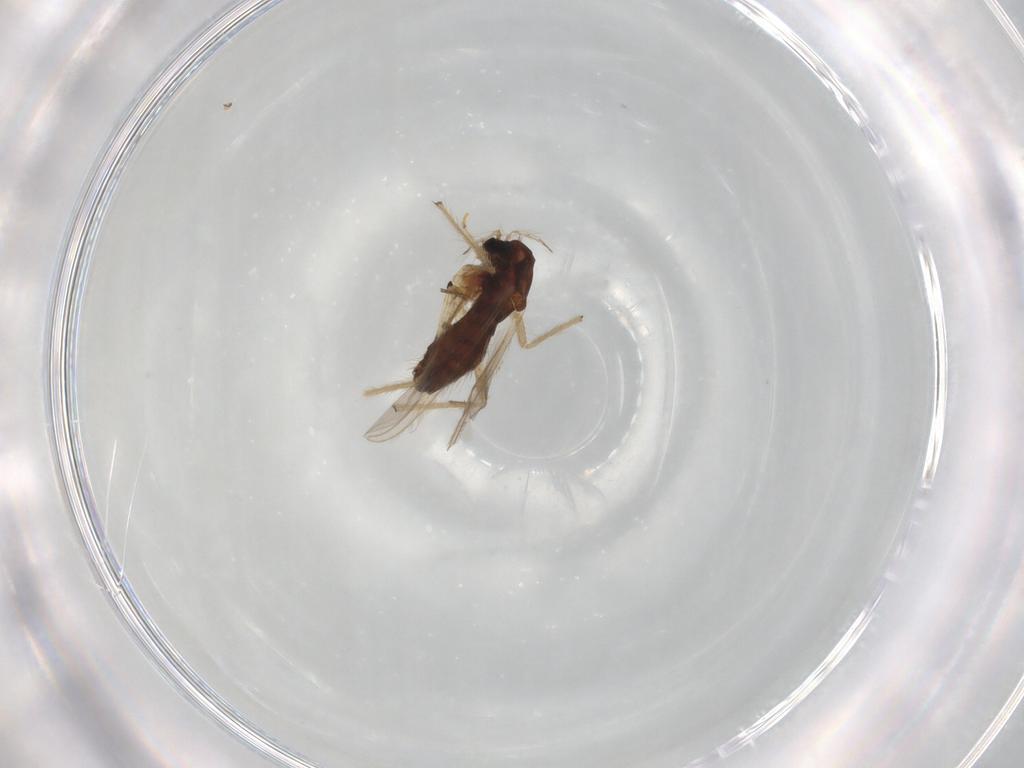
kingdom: Animalia
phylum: Arthropoda
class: Insecta
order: Diptera
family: Chironomidae
